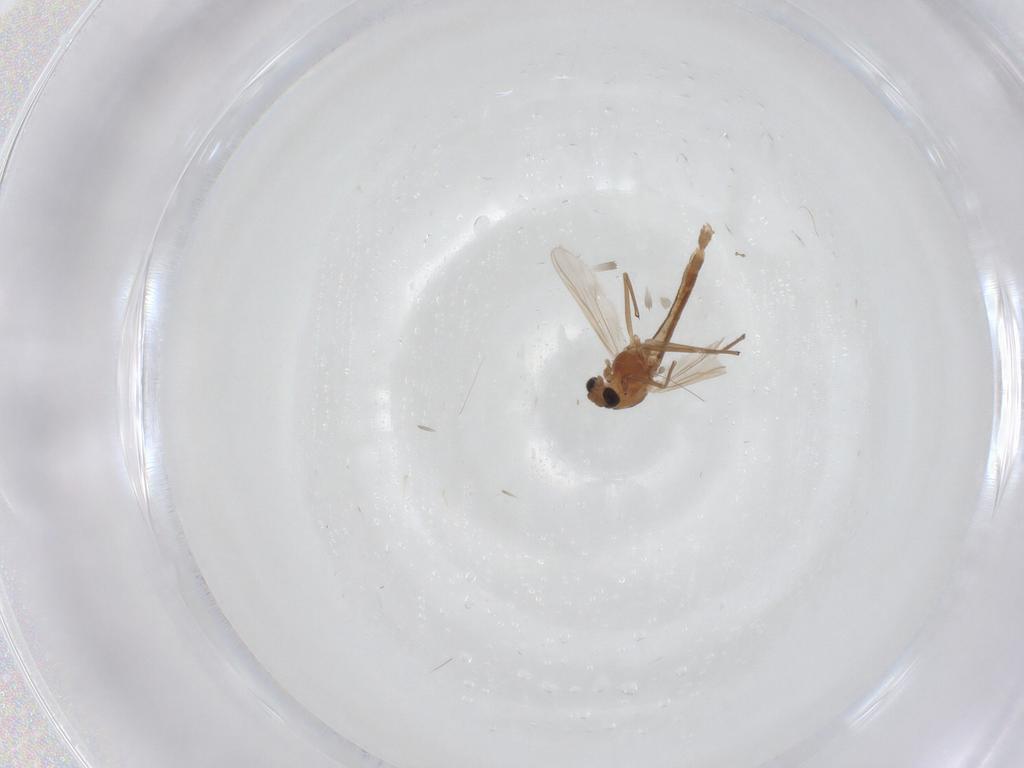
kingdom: Animalia
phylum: Arthropoda
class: Insecta
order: Diptera
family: Chironomidae
